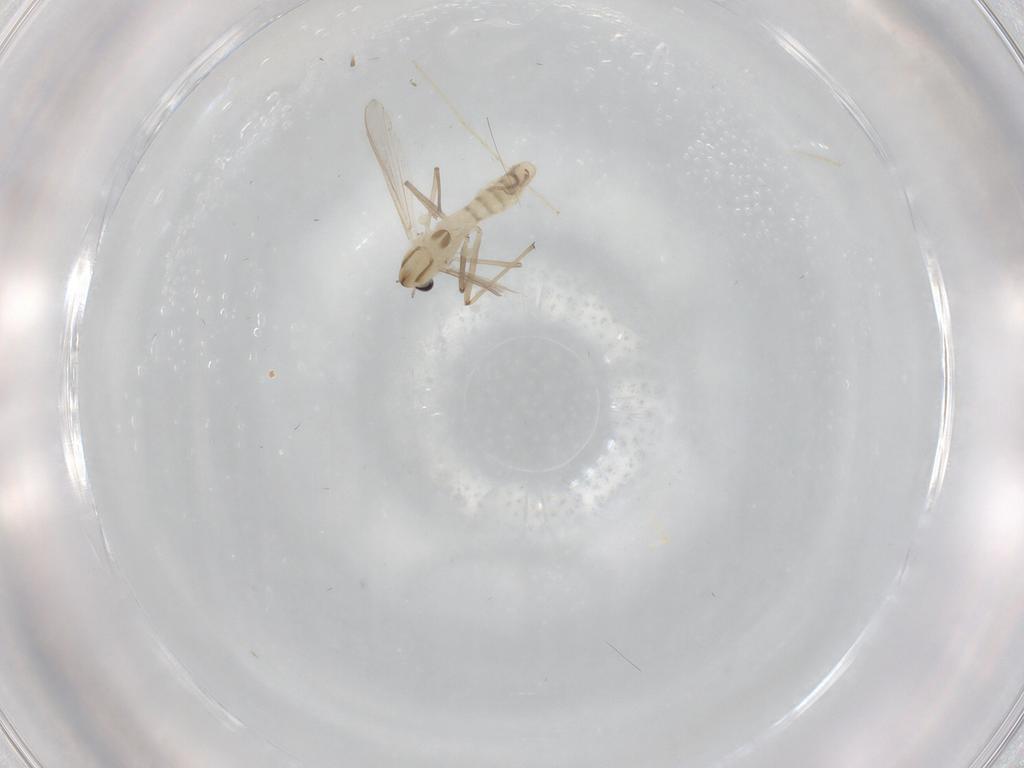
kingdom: Animalia
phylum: Arthropoda
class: Insecta
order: Diptera
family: Chironomidae
